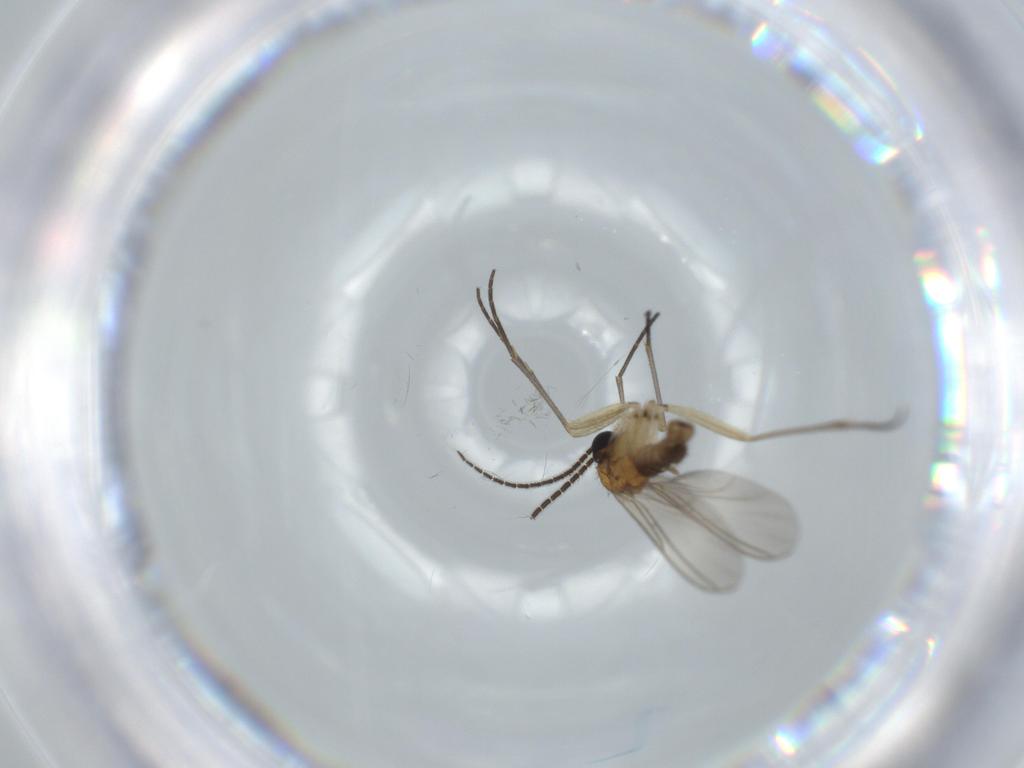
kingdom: Animalia
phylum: Arthropoda
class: Insecta
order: Diptera
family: Sciaridae
